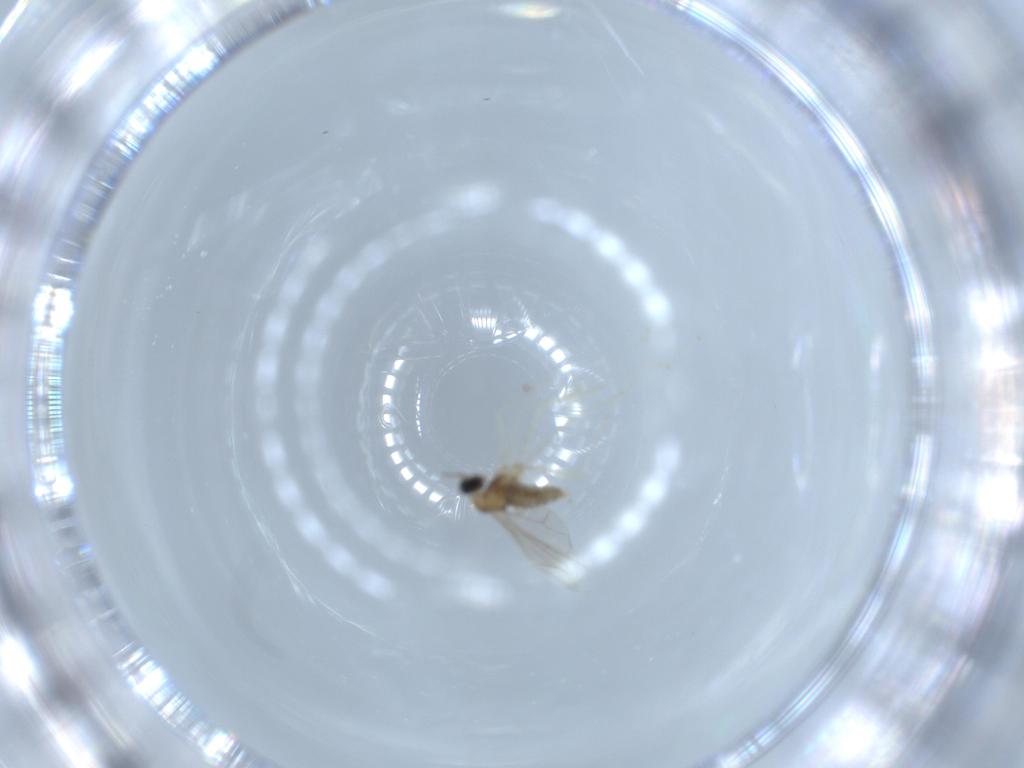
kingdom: Animalia
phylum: Arthropoda
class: Insecta
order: Diptera
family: Cecidomyiidae
